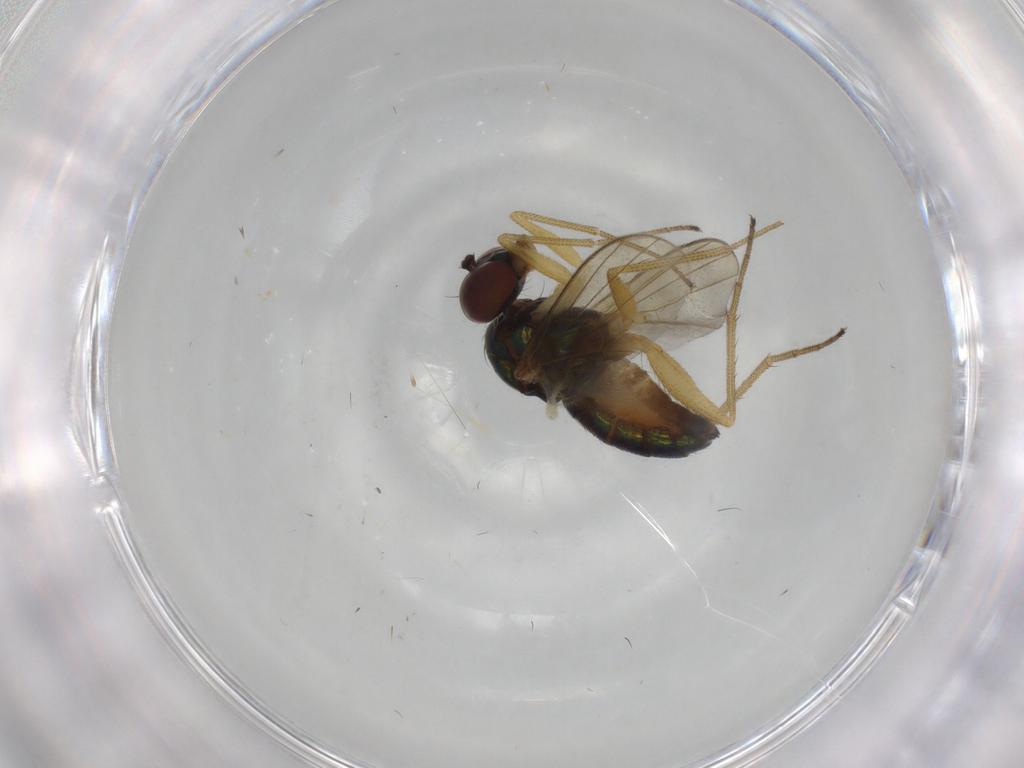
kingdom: Animalia
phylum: Arthropoda
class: Insecta
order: Diptera
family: Dolichopodidae
